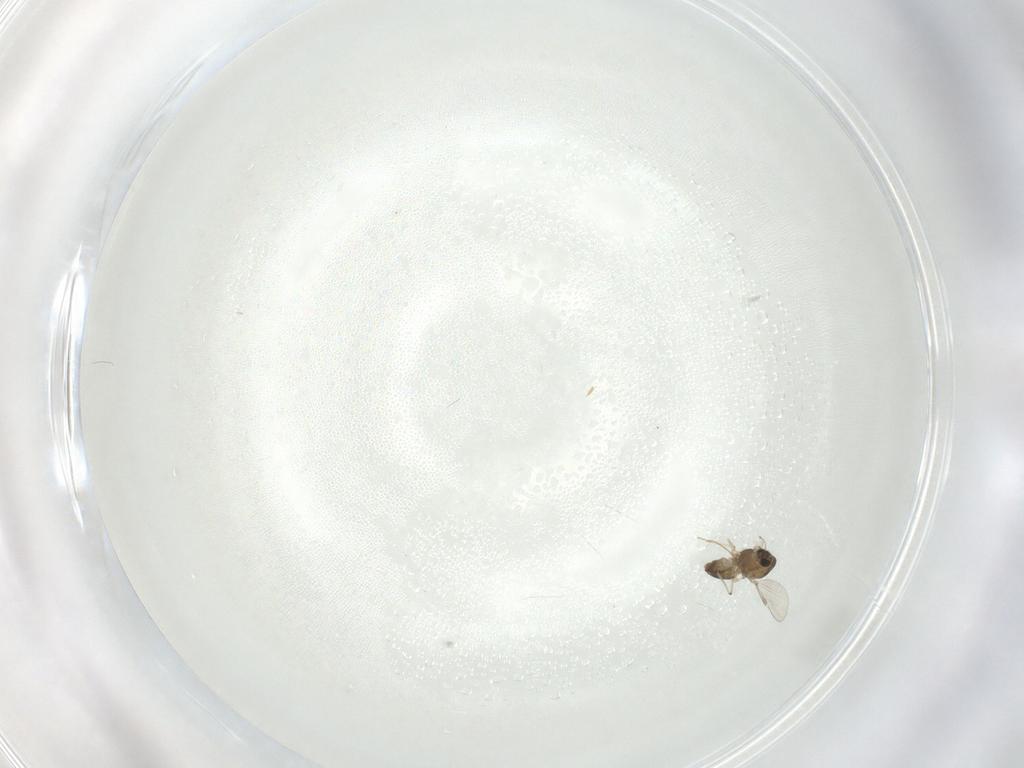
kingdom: Animalia
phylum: Arthropoda
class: Insecta
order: Diptera
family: Chironomidae
